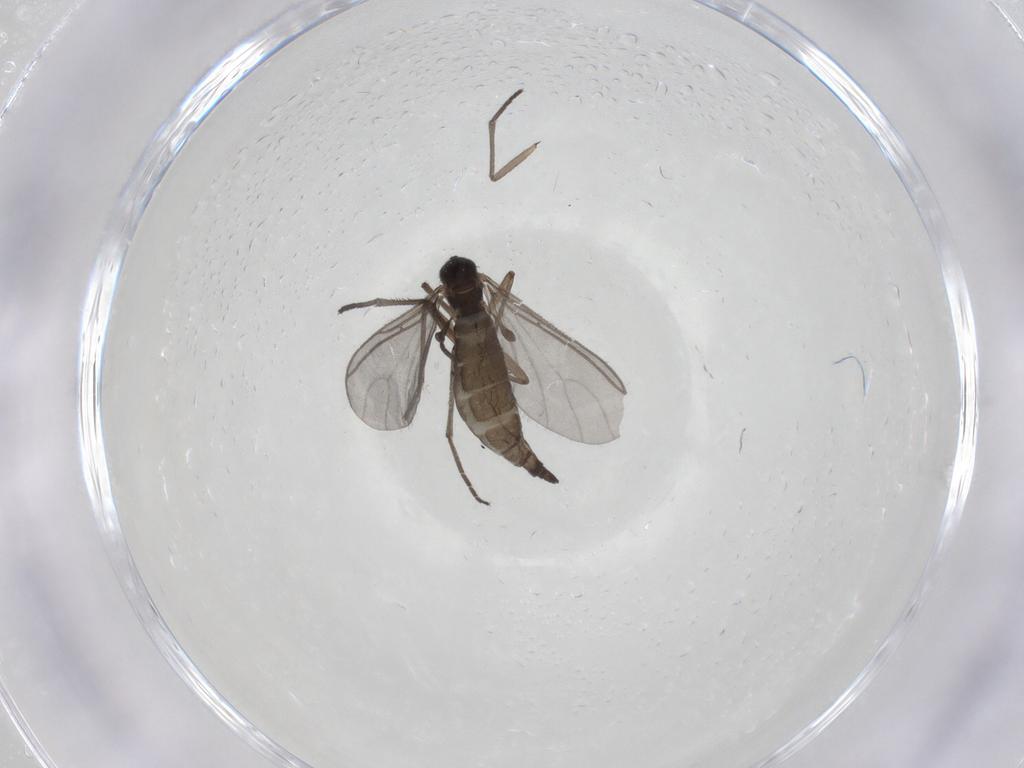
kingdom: Animalia
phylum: Arthropoda
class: Insecta
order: Diptera
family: Sciaridae
